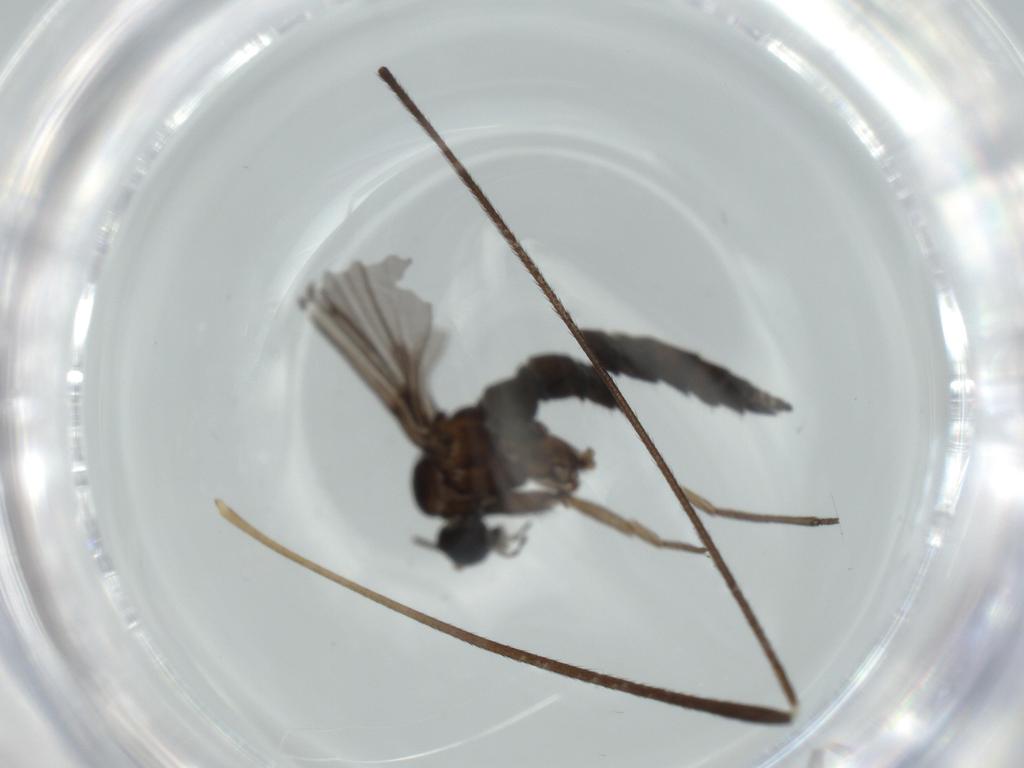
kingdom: Animalia
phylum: Arthropoda
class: Insecta
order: Diptera
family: Sciaridae
